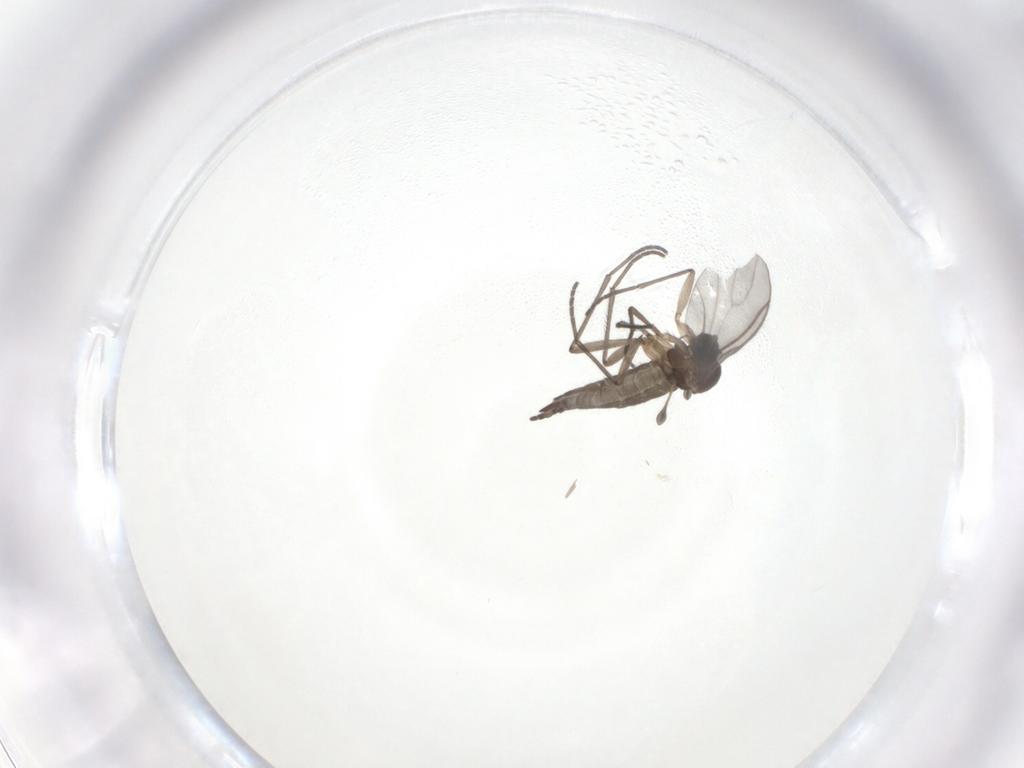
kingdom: Animalia
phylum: Arthropoda
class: Insecta
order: Diptera
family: Sciaridae
